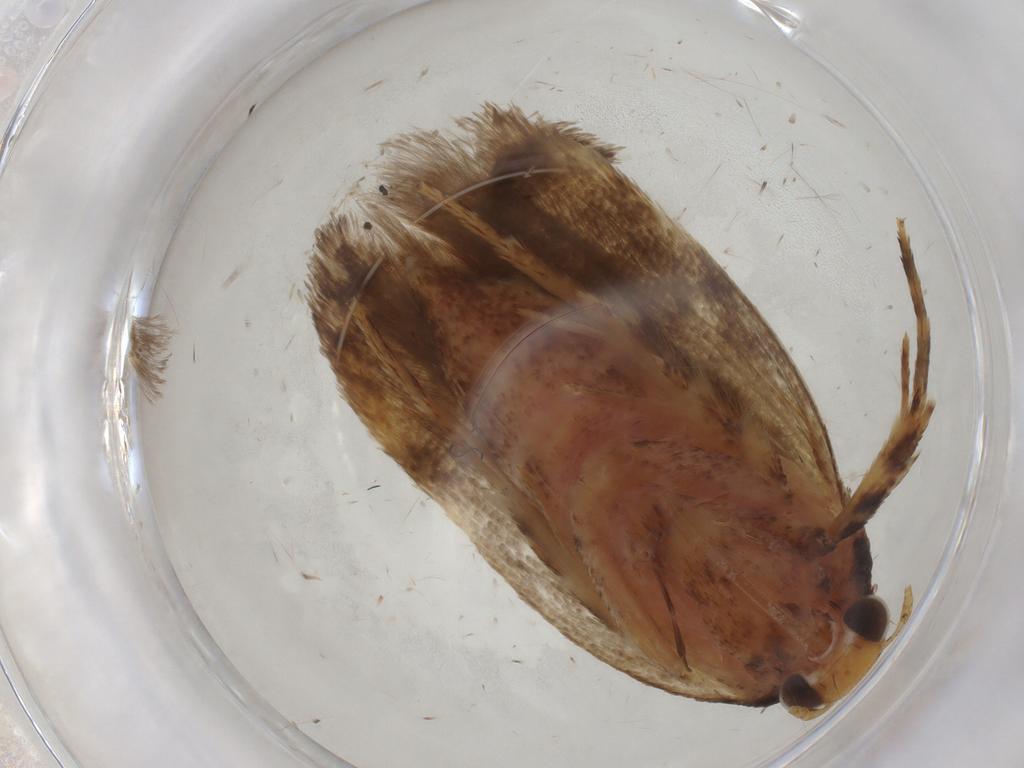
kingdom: Animalia
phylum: Arthropoda
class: Insecta
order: Lepidoptera
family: Gelechiidae
